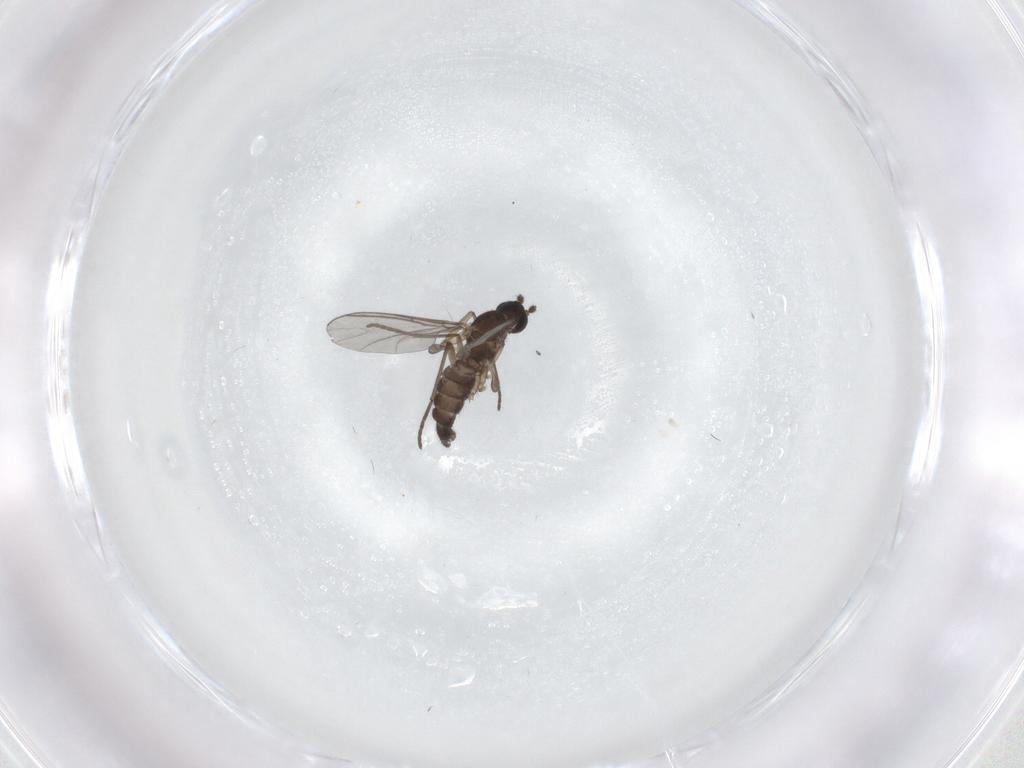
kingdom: Animalia
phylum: Arthropoda
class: Insecta
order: Diptera
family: Sciaridae
